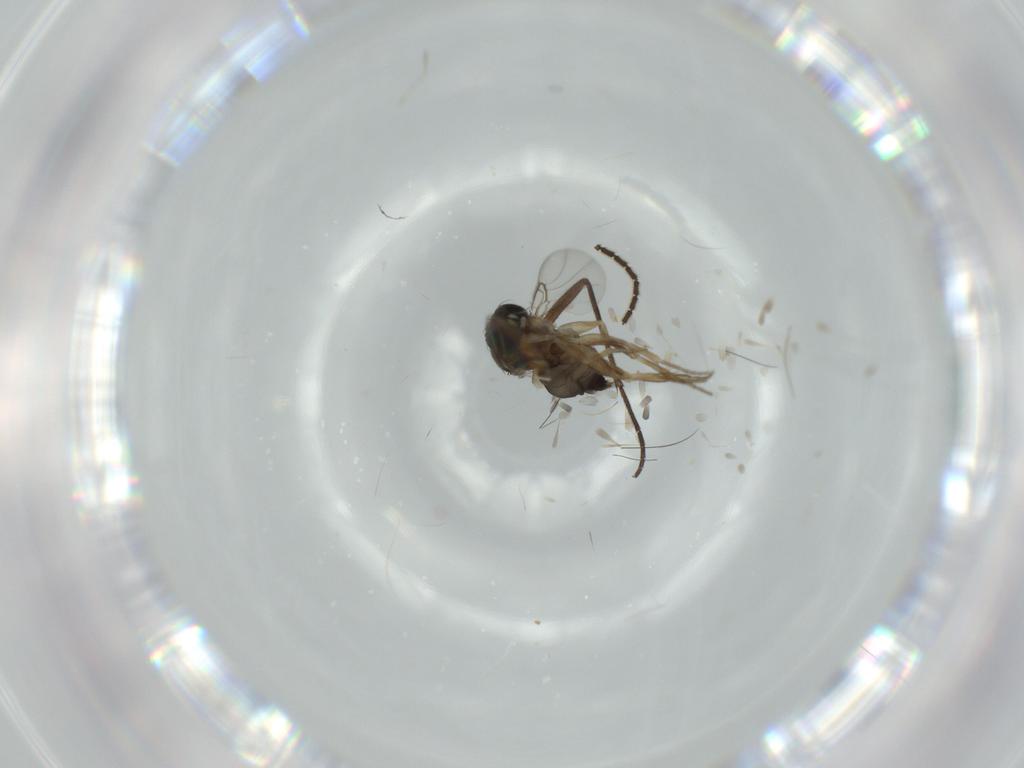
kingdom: Animalia
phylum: Arthropoda
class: Insecta
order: Diptera
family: Sciaridae
